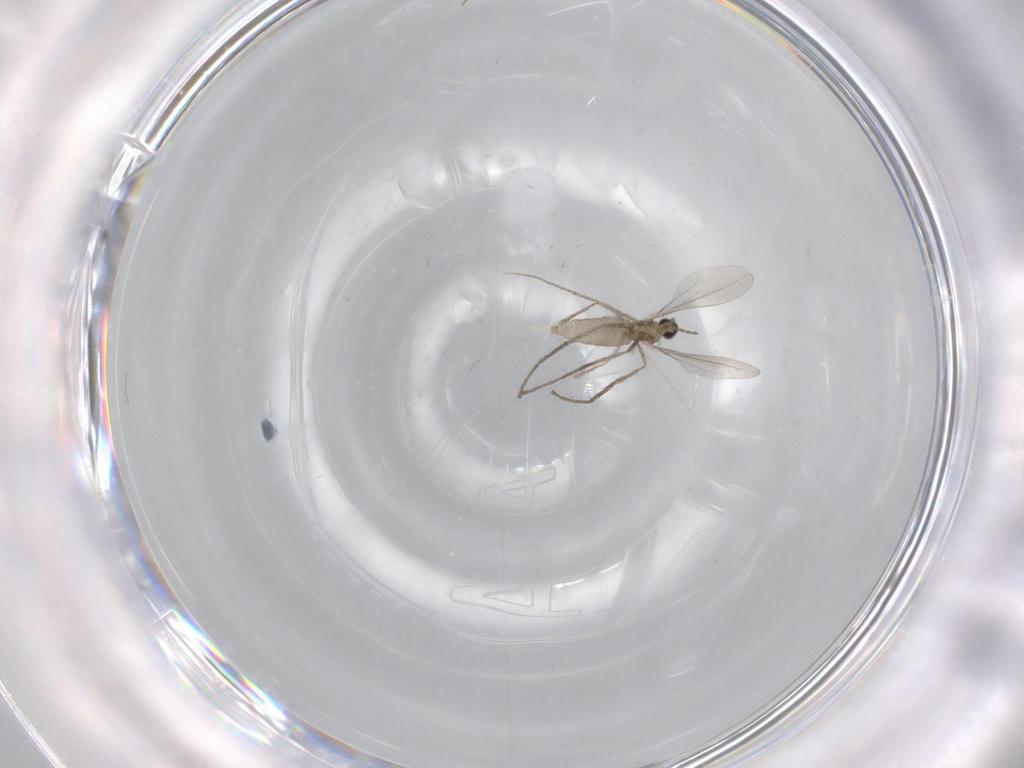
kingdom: Animalia
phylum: Arthropoda
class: Insecta
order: Diptera
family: Cecidomyiidae
